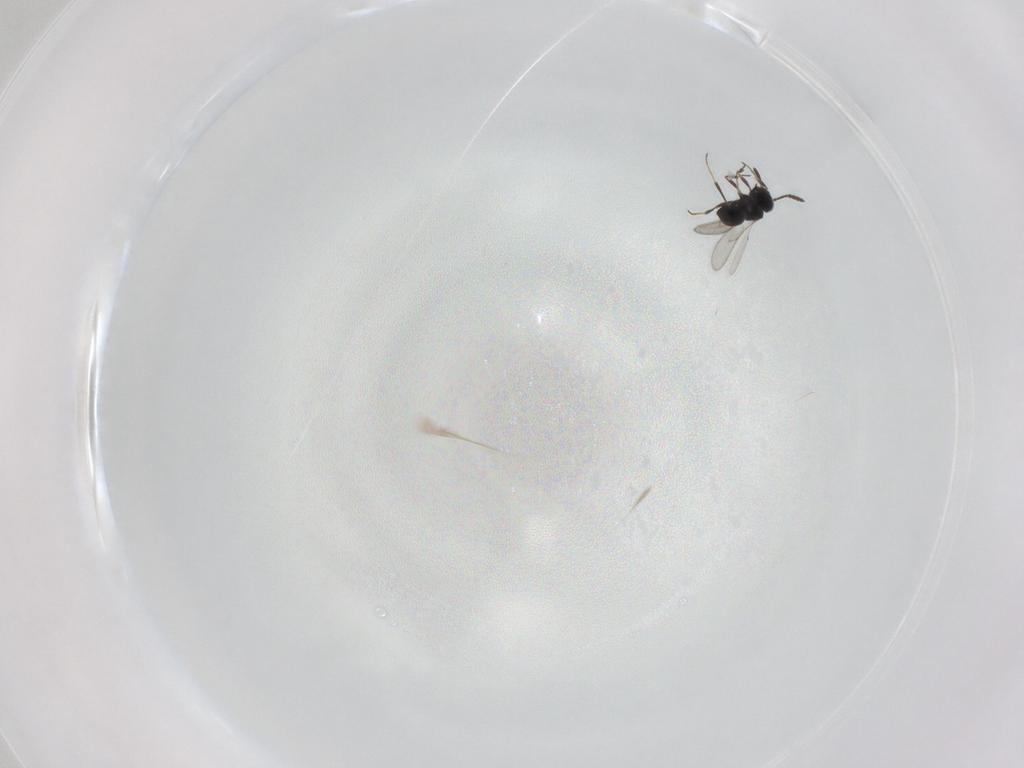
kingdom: Animalia
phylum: Arthropoda
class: Insecta
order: Hymenoptera
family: Scelionidae
